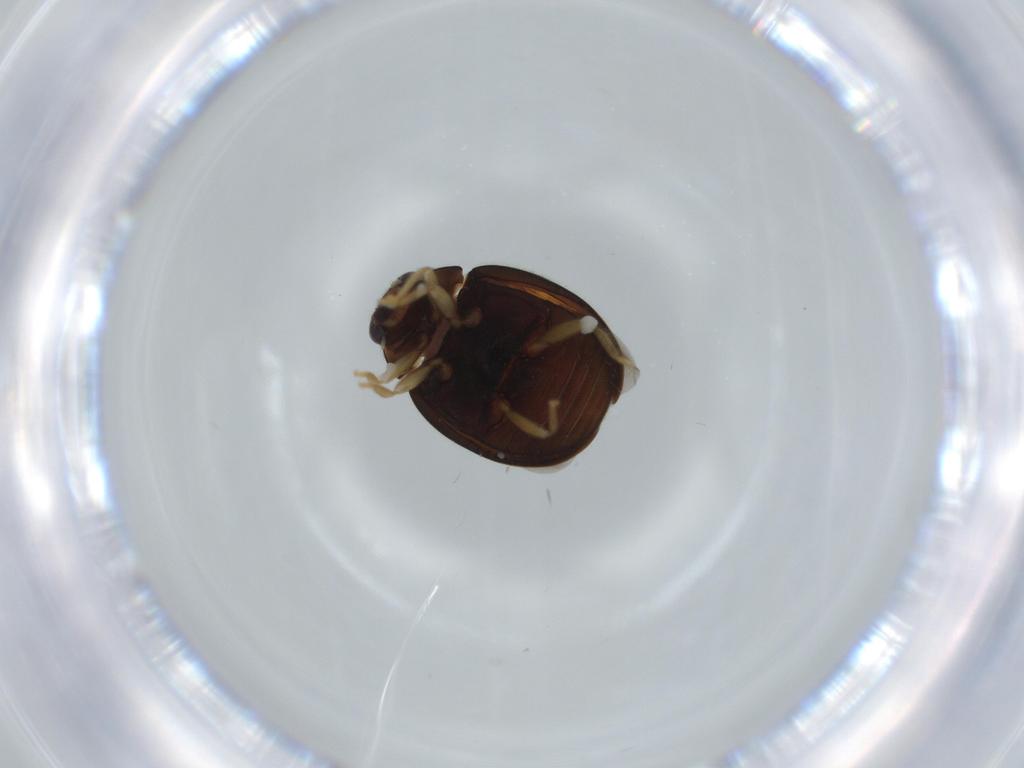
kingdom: Animalia
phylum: Arthropoda
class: Insecta
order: Coleoptera
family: Coccinellidae
